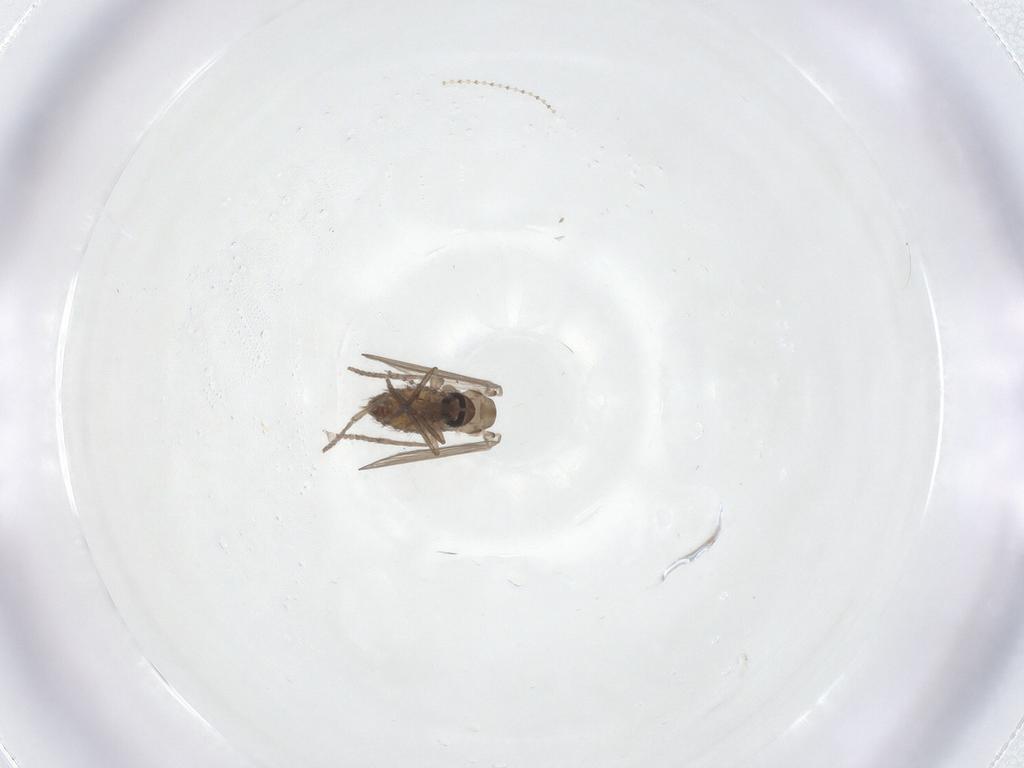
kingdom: Animalia
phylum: Arthropoda
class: Insecta
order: Diptera
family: Psychodidae
